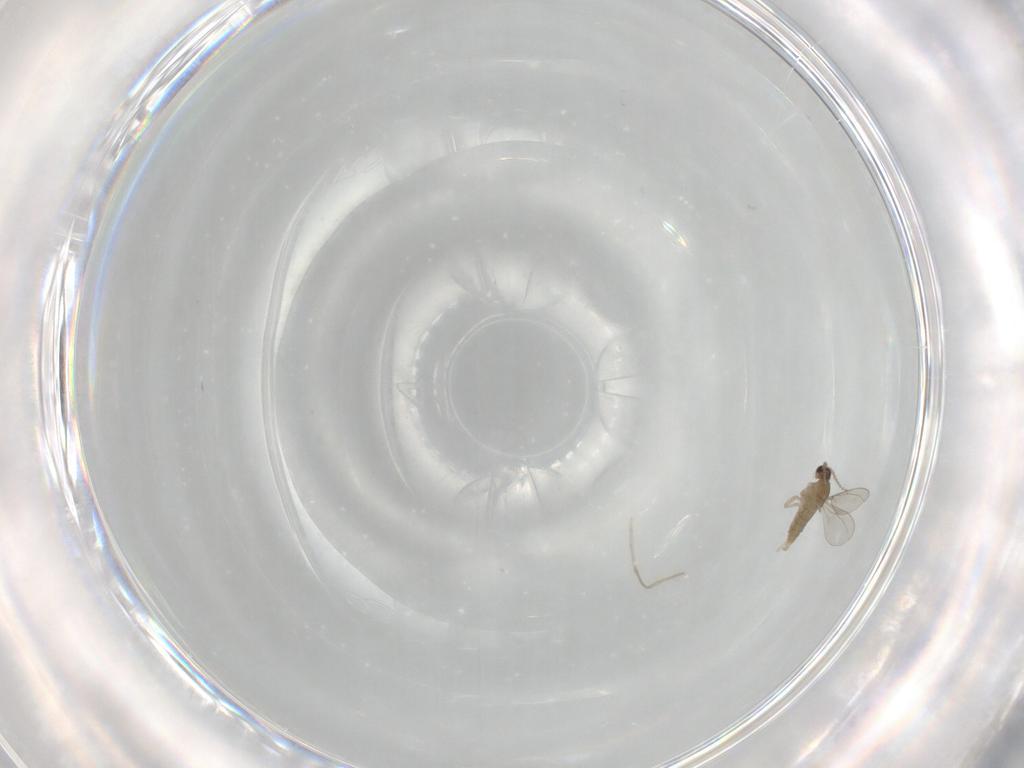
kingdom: Animalia
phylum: Arthropoda
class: Insecta
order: Diptera
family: Cecidomyiidae
